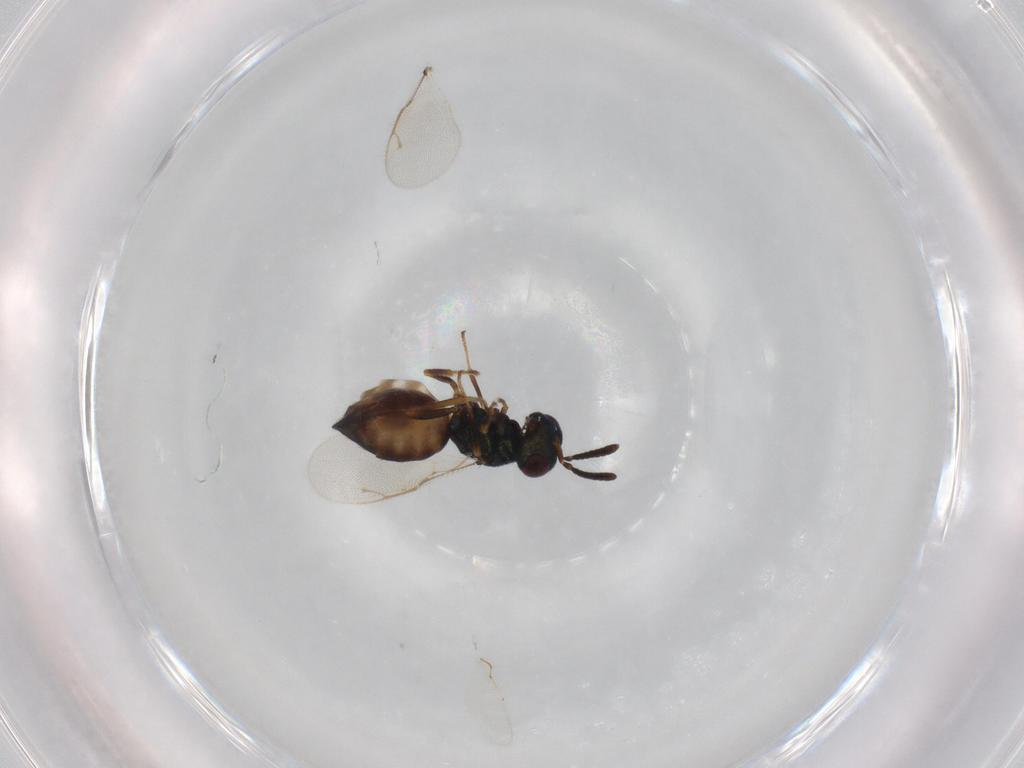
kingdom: Animalia
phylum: Arthropoda
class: Insecta
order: Hymenoptera
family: Pteromalidae
